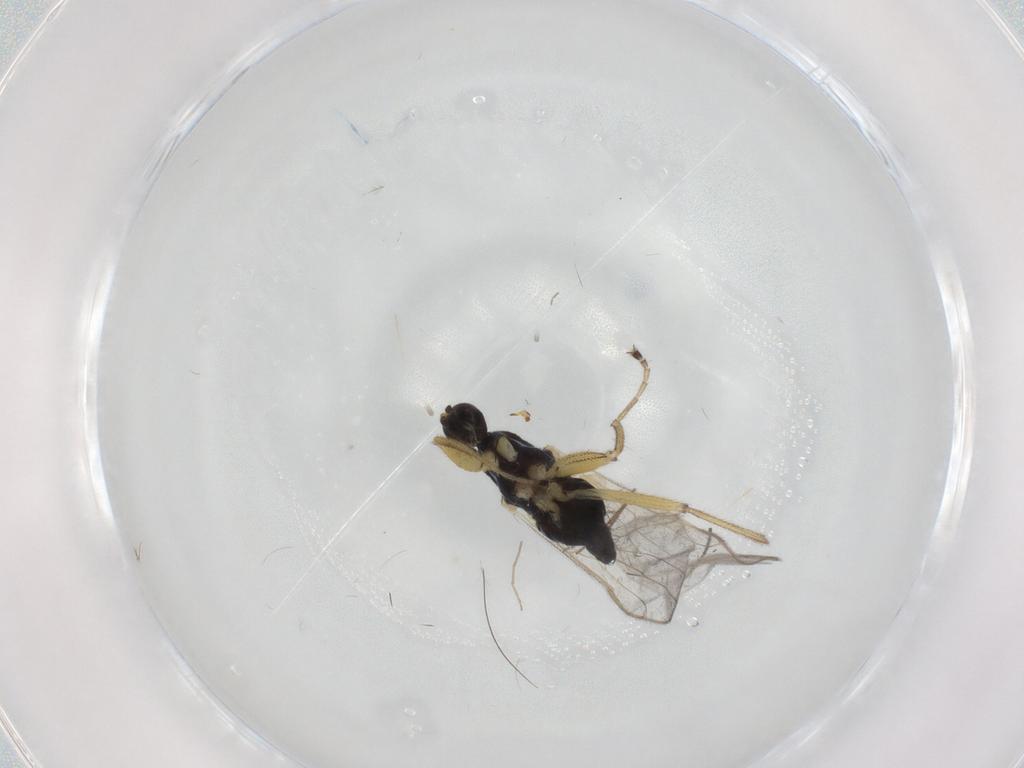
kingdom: Animalia
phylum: Arthropoda
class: Insecta
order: Diptera
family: Hybotidae
